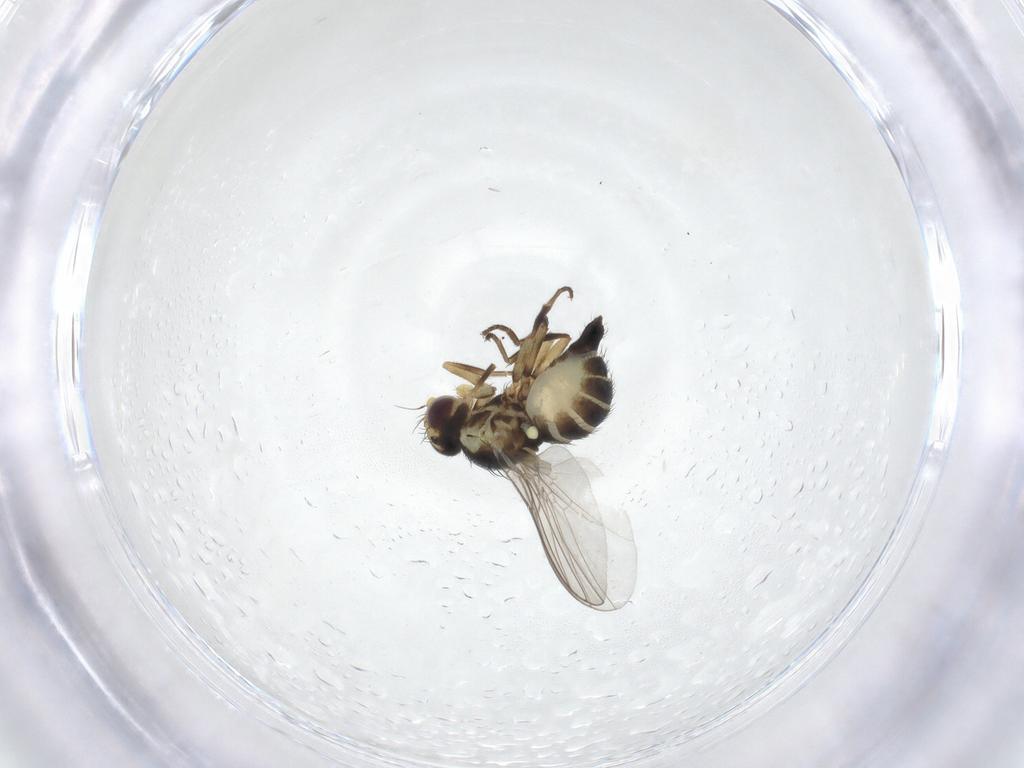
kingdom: Animalia
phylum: Arthropoda
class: Insecta
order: Diptera
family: Agromyzidae
